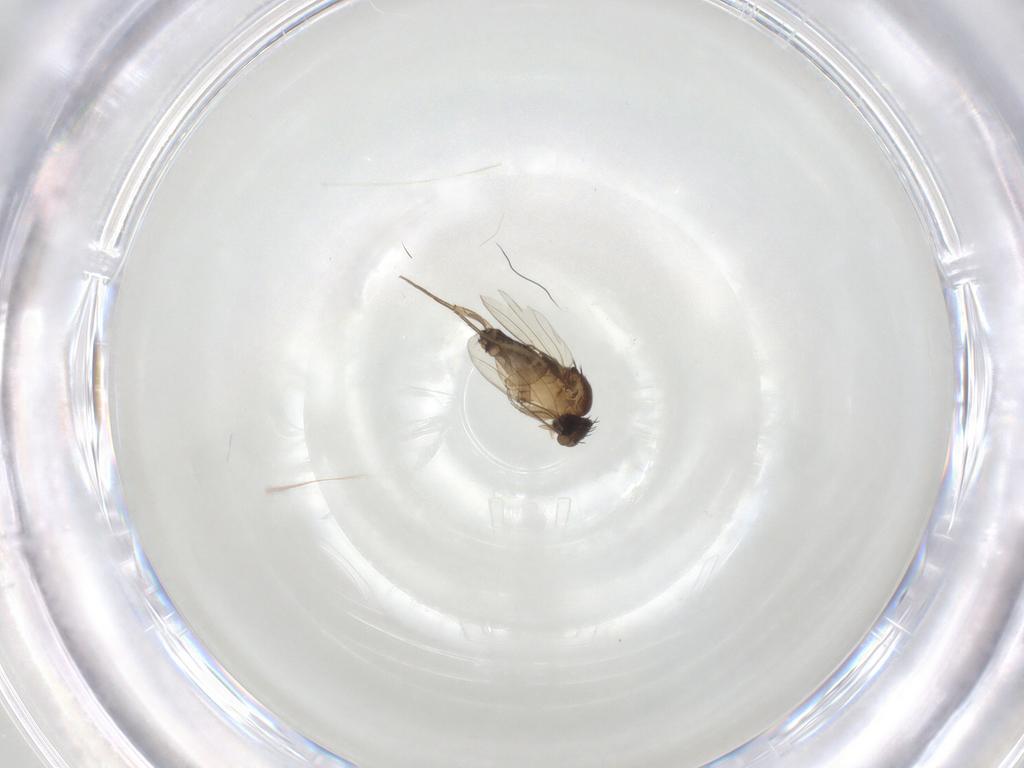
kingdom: Animalia
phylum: Arthropoda
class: Insecta
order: Diptera
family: Phoridae
